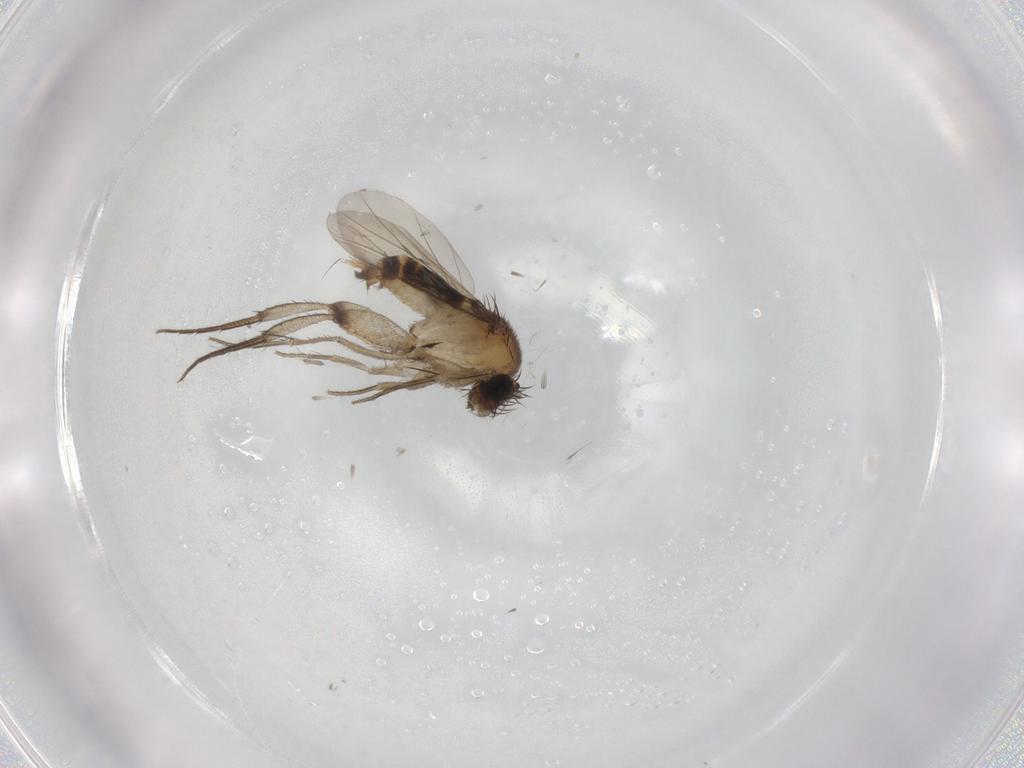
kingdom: Animalia
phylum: Arthropoda
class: Insecta
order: Diptera
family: Phoridae
